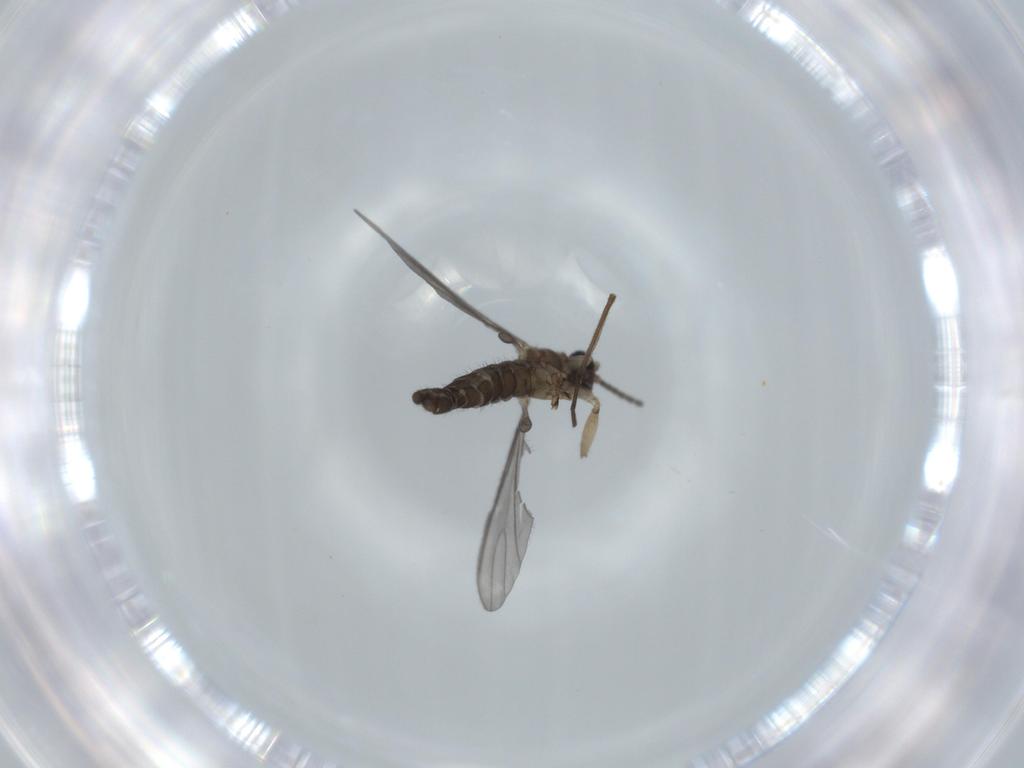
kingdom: Animalia
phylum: Arthropoda
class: Insecta
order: Diptera
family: Sciaridae
